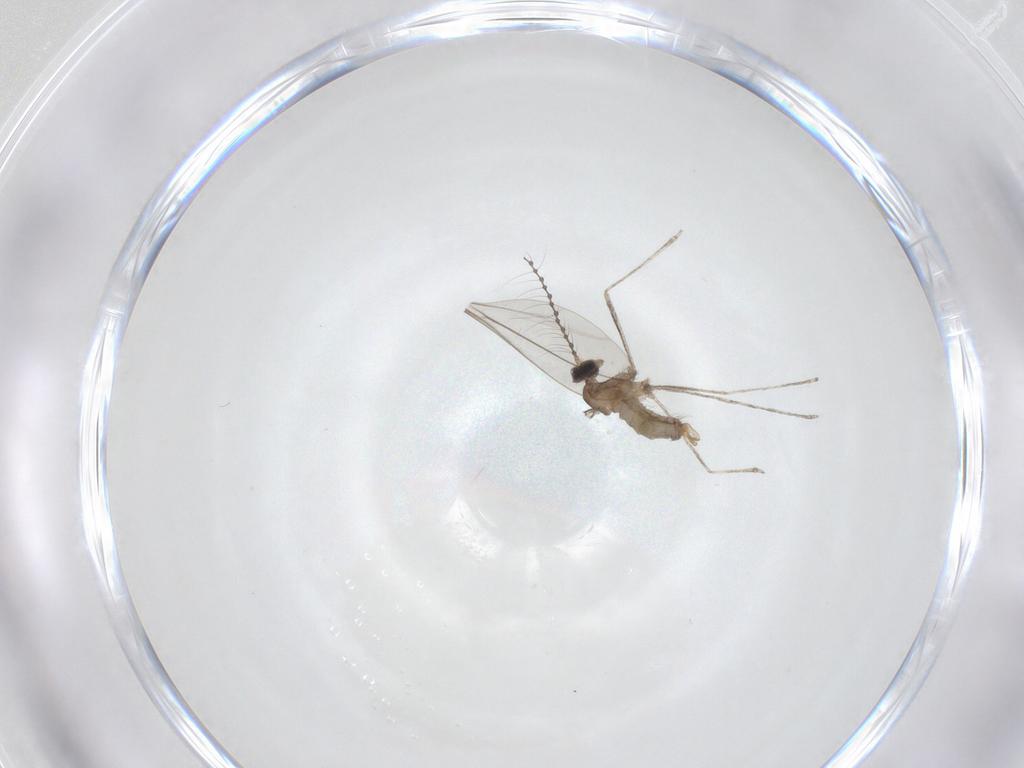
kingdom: Animalia
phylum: Arthropoda
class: Insecta
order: Diptera
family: Cecidomyiidae
